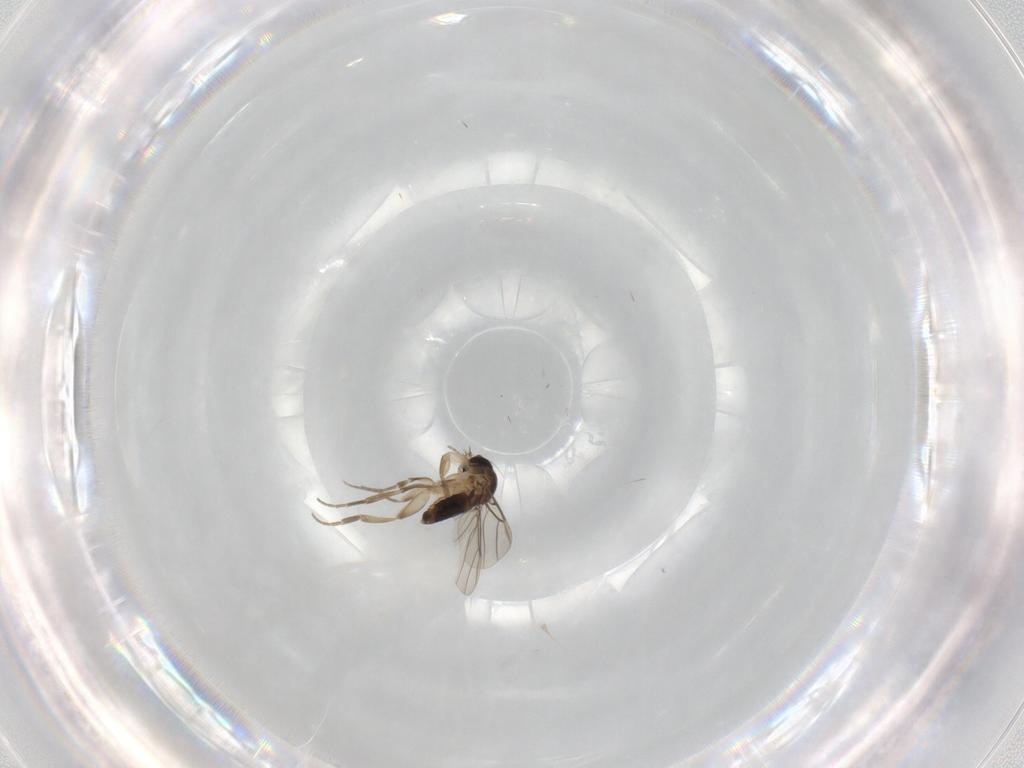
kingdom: Animalia
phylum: Arthropoda
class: Insecta
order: Diptera
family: Phoridae
